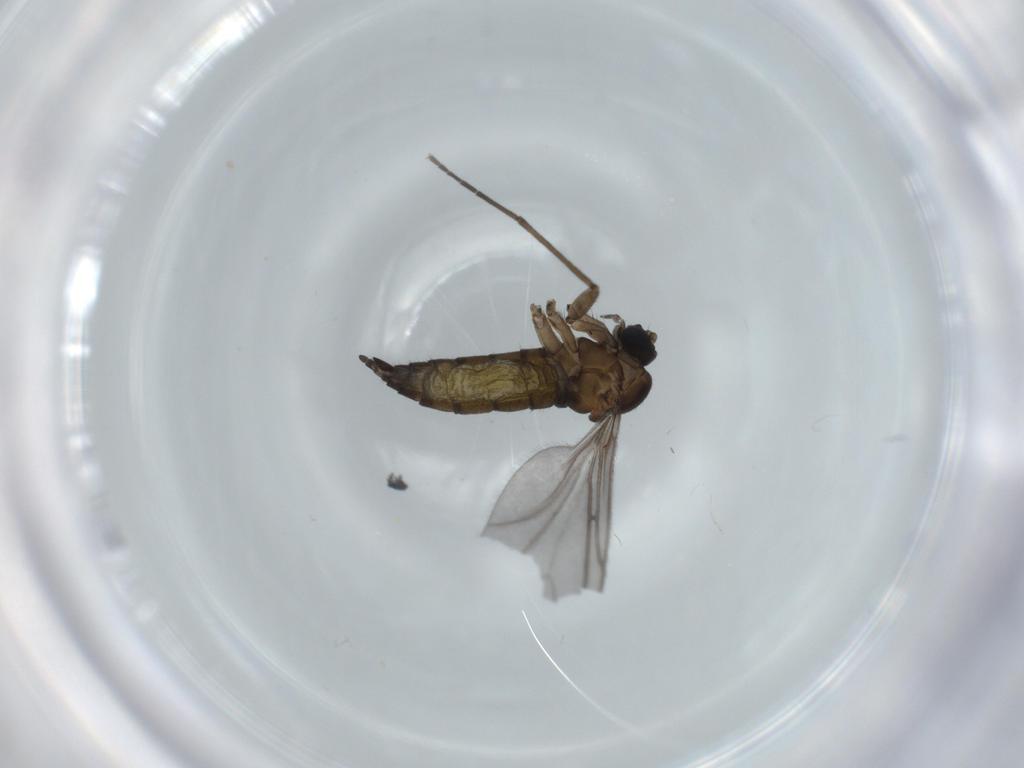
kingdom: Animalia
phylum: Arthropoda
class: Insecta
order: Diptera
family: Sciaridae
